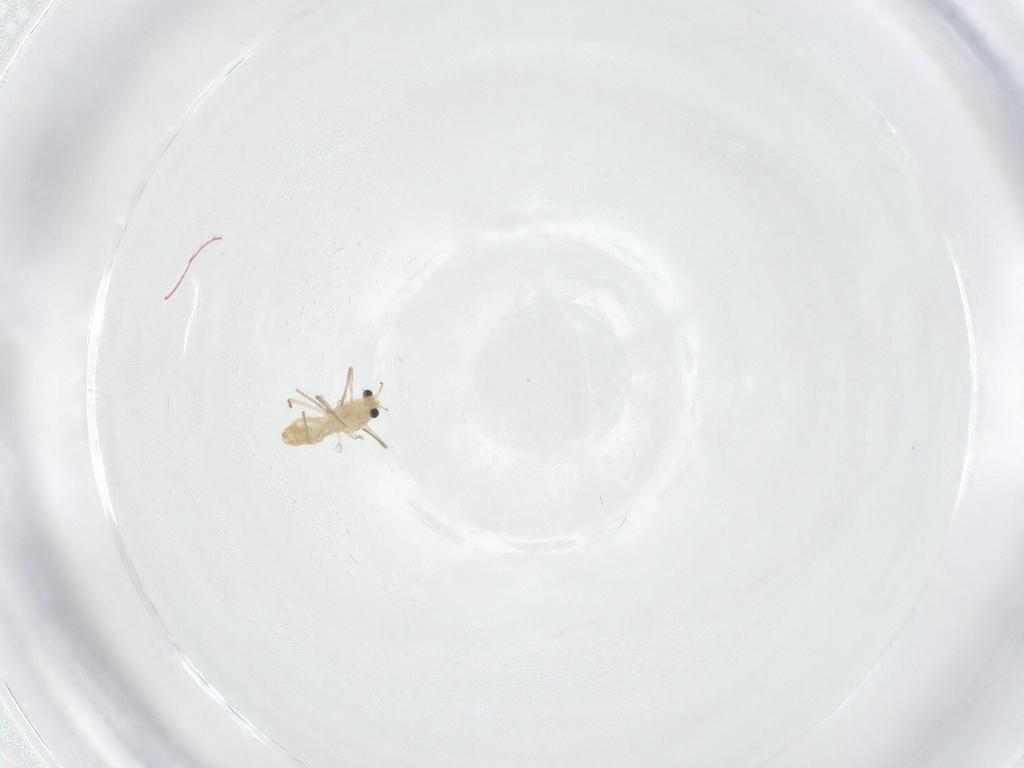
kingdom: Animalia
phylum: Arthropoda
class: Insecta
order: Diptera
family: Chironomidae
